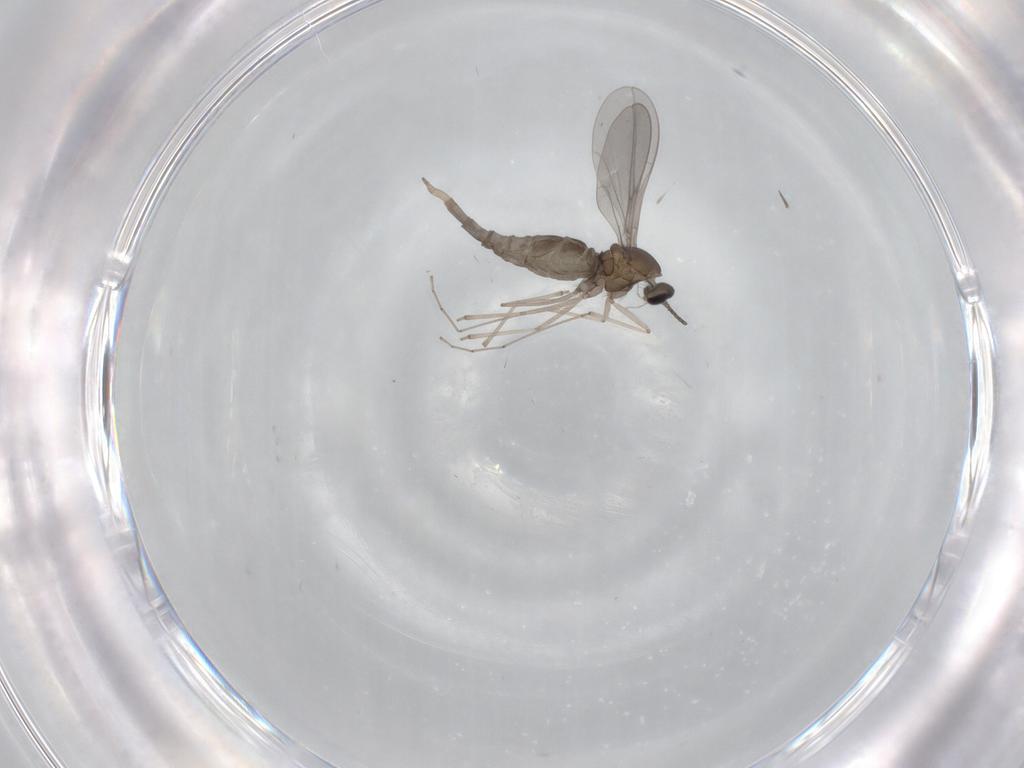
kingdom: Animalia
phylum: Arthropoda
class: Insecta
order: Diptera
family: Cecidomyiidae
